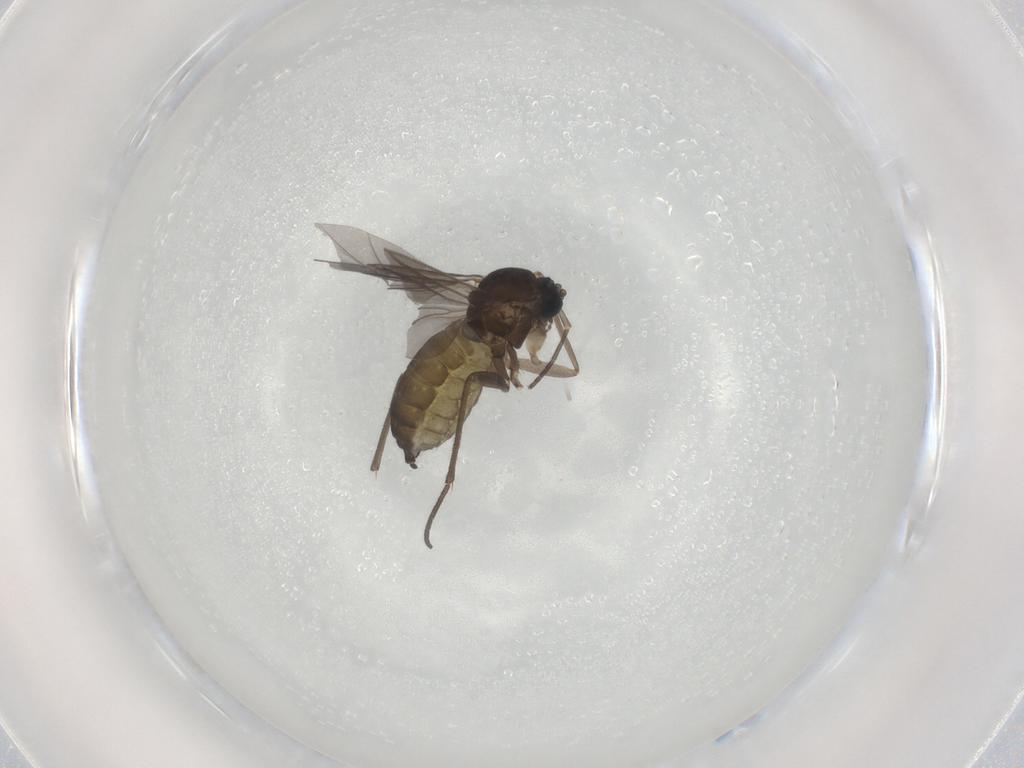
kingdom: Animalia
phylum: Arthropoda
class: Insecta
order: Diptera
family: Sciaridae
